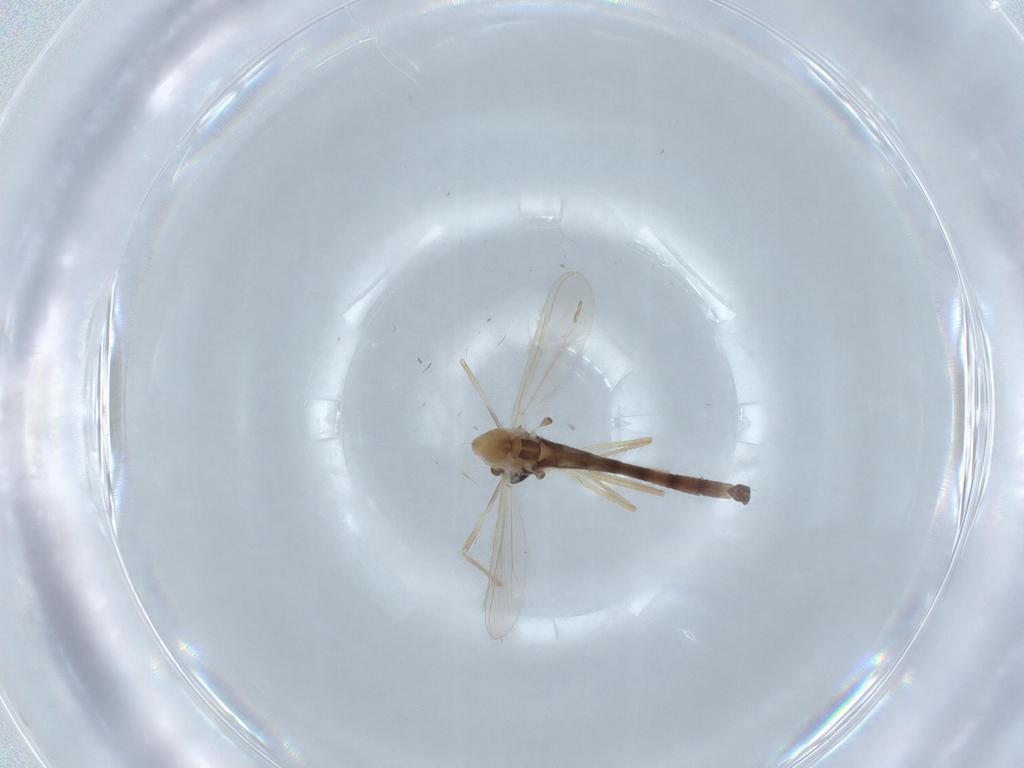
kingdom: Animalia
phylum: Arthropoda
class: Insecta
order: Diptera
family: Chironomidae
